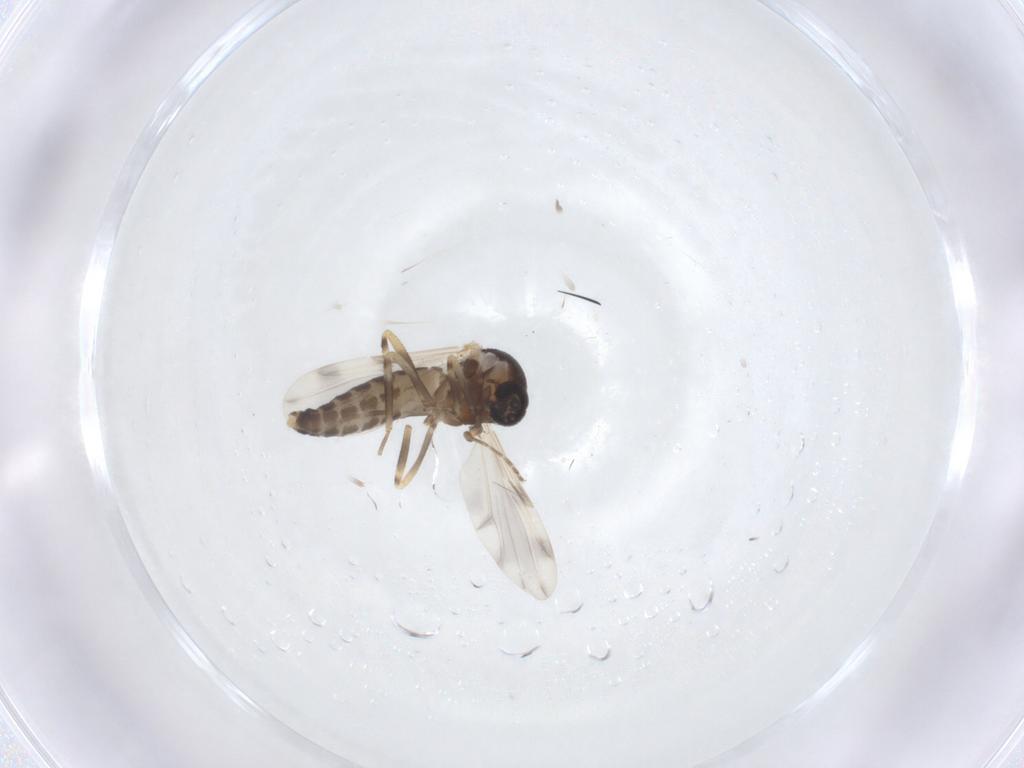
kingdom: Animalia
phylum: Arthropoda
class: Insecta
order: Diptera
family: Ceratopogonidae
